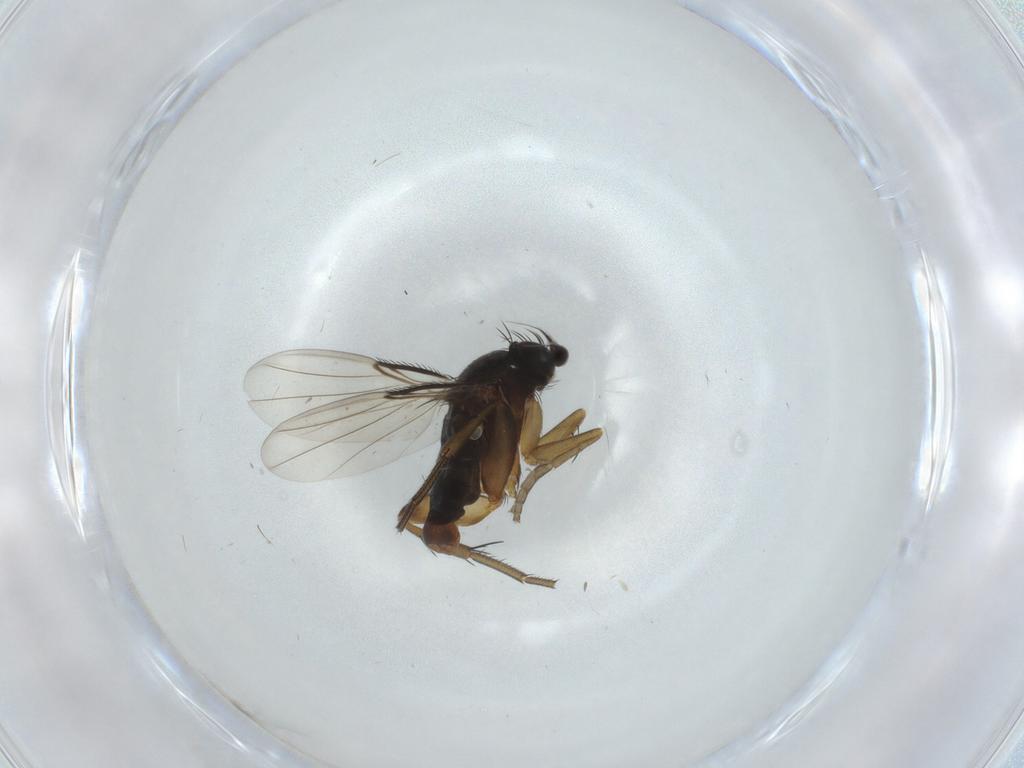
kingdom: Animalia
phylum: Arthropoda
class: Insecta
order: Diptera
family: Phoridae
